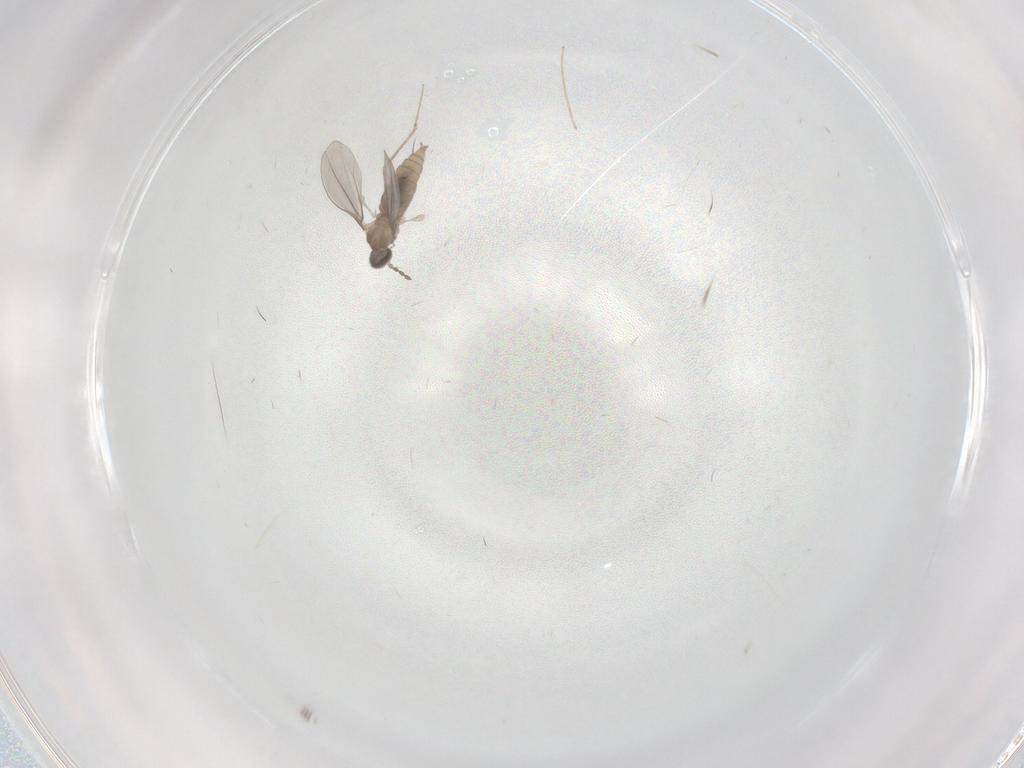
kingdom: Animalia
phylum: Arthropoda
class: Insecta
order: Diptera
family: Cecidomyiidae
